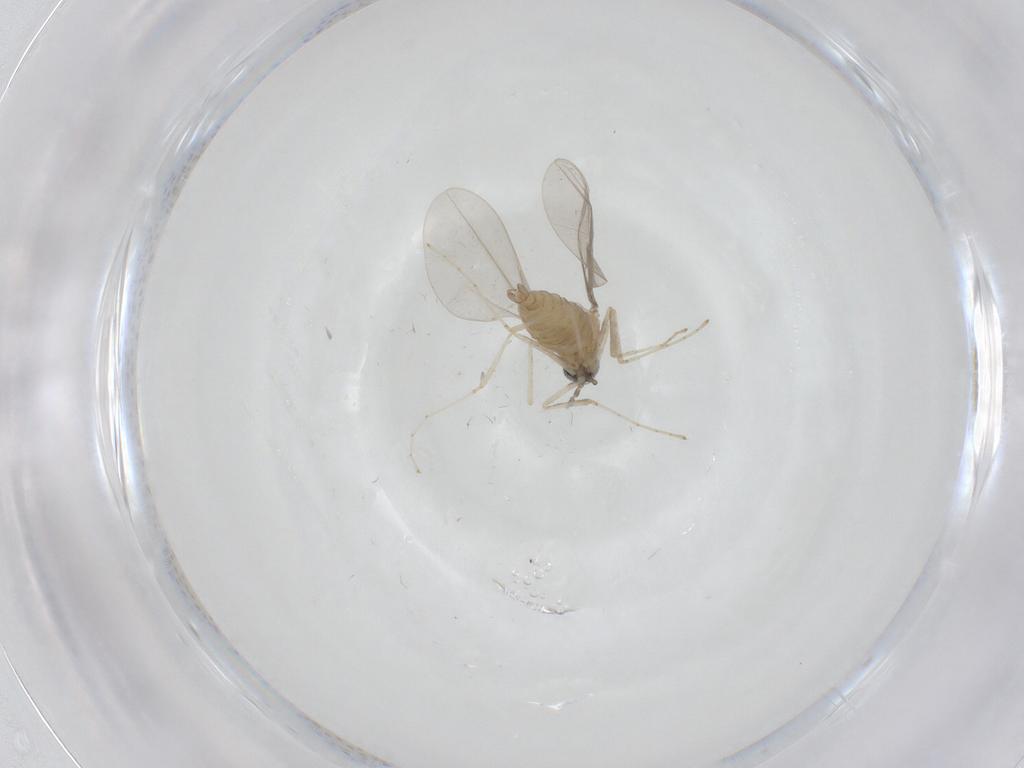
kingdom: Animalia
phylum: Arthropoda
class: Insecta
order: Diptera
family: Cecidomyiidae
